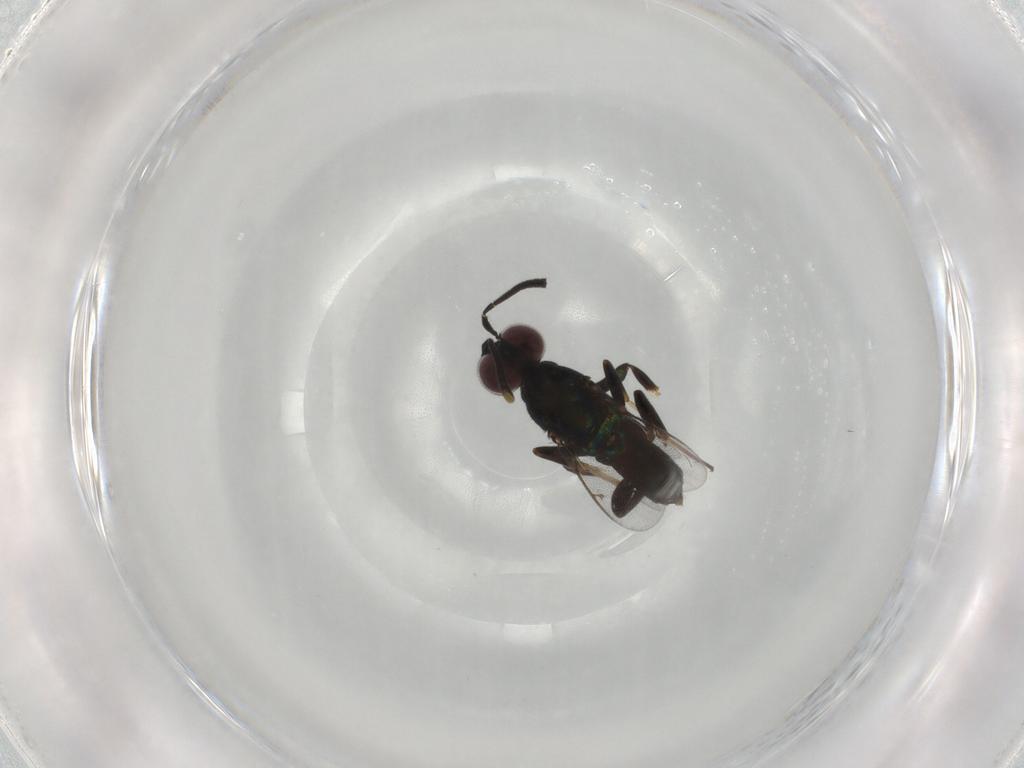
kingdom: Animalia
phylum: Arthropoda
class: Insecta
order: Hymenoptera
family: Eupelmidae
